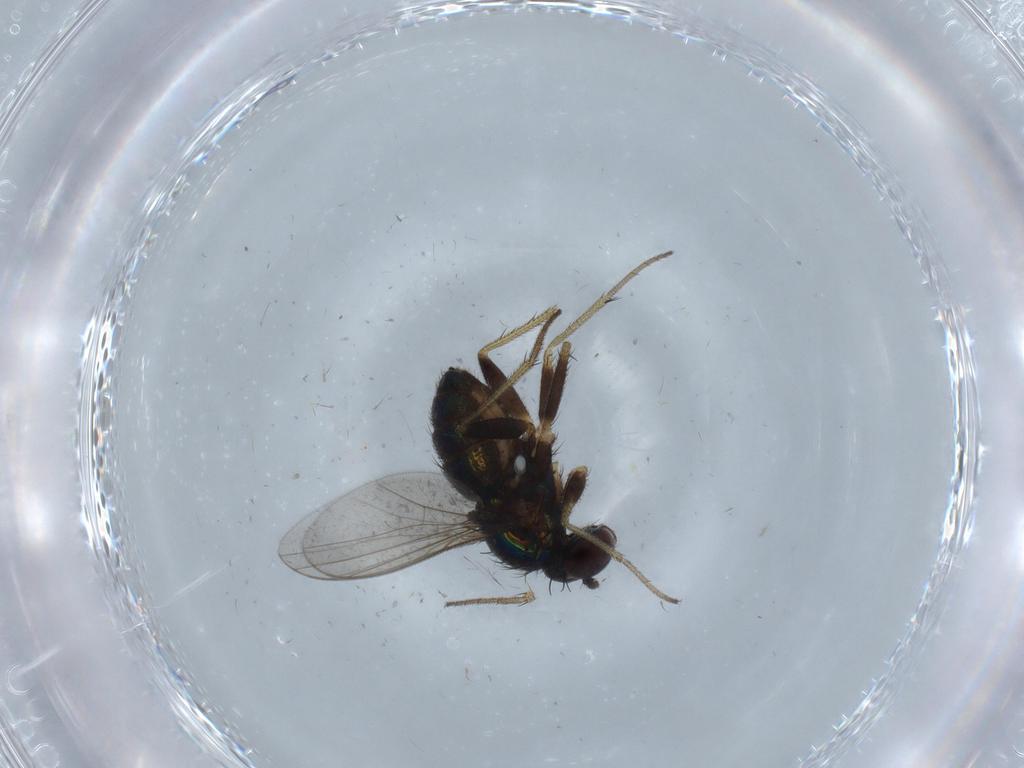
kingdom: Animalia
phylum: Arthropoda
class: Insecta
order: Diptera
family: Dolichopodidae
